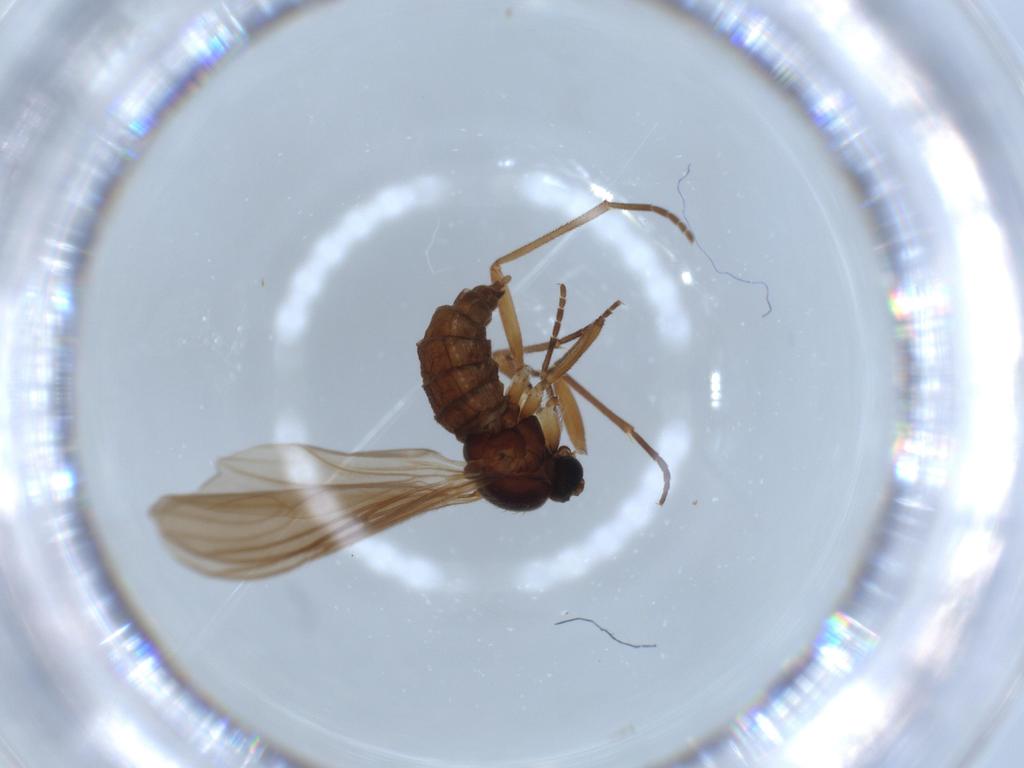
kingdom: Animalia
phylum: Arthropoda
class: Insecta
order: Diptera
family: Sciaridae
